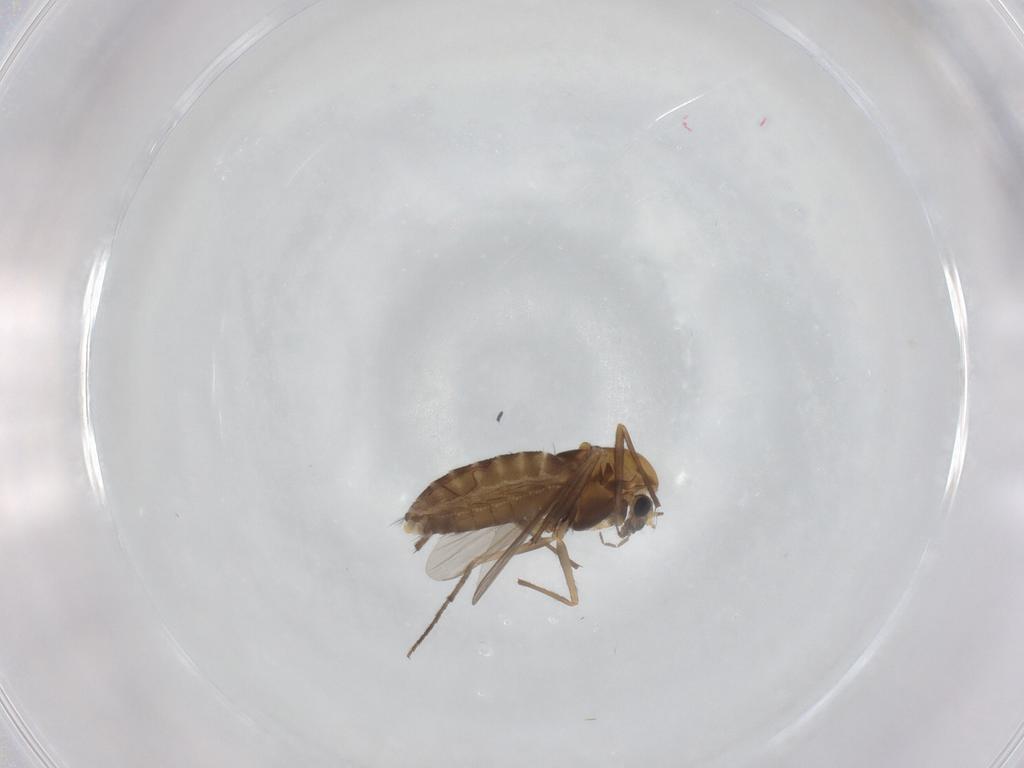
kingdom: Animalia
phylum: Arthropoda
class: Insecta
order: Diptera
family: Chironomidae
